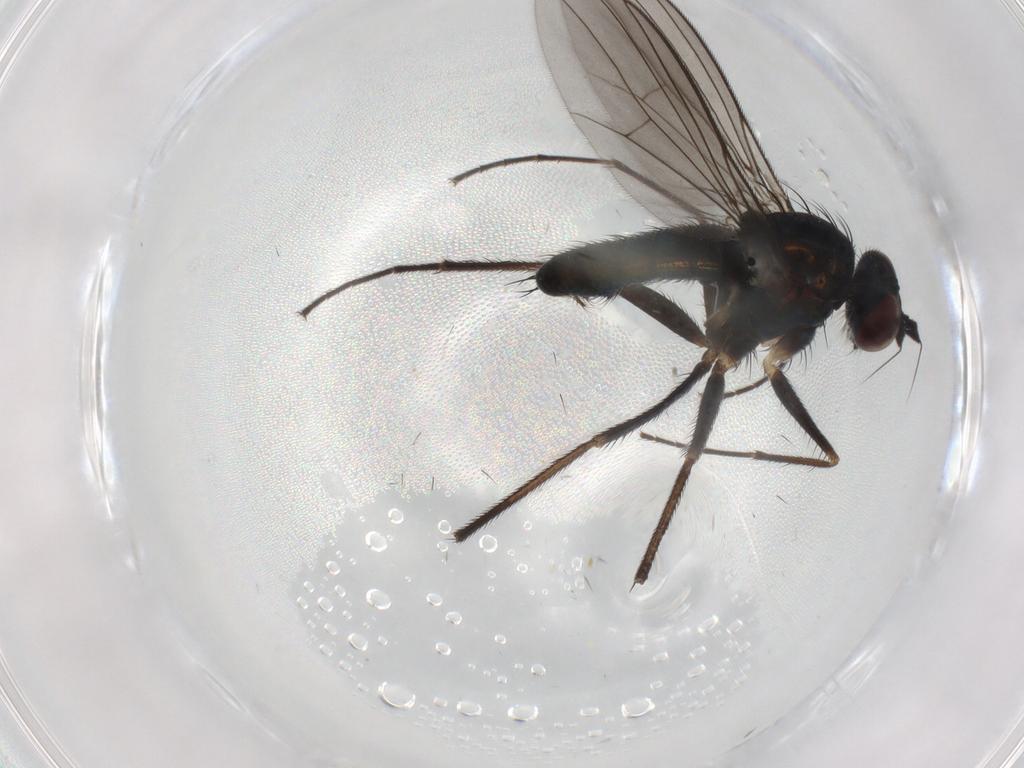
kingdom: Animalia
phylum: Arthropoda
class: Insecta
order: Diptera
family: Dolichopodidae
